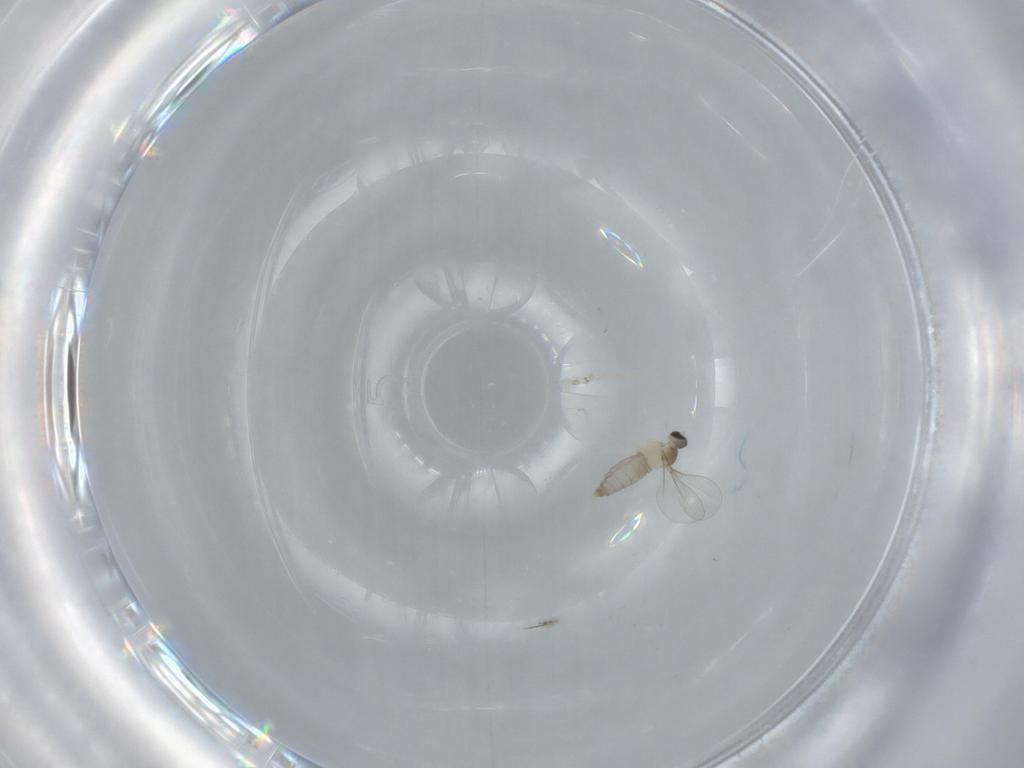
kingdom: Animalia
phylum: Arthropoda
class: Insecta
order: Diptera
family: Cecidomyiidae
